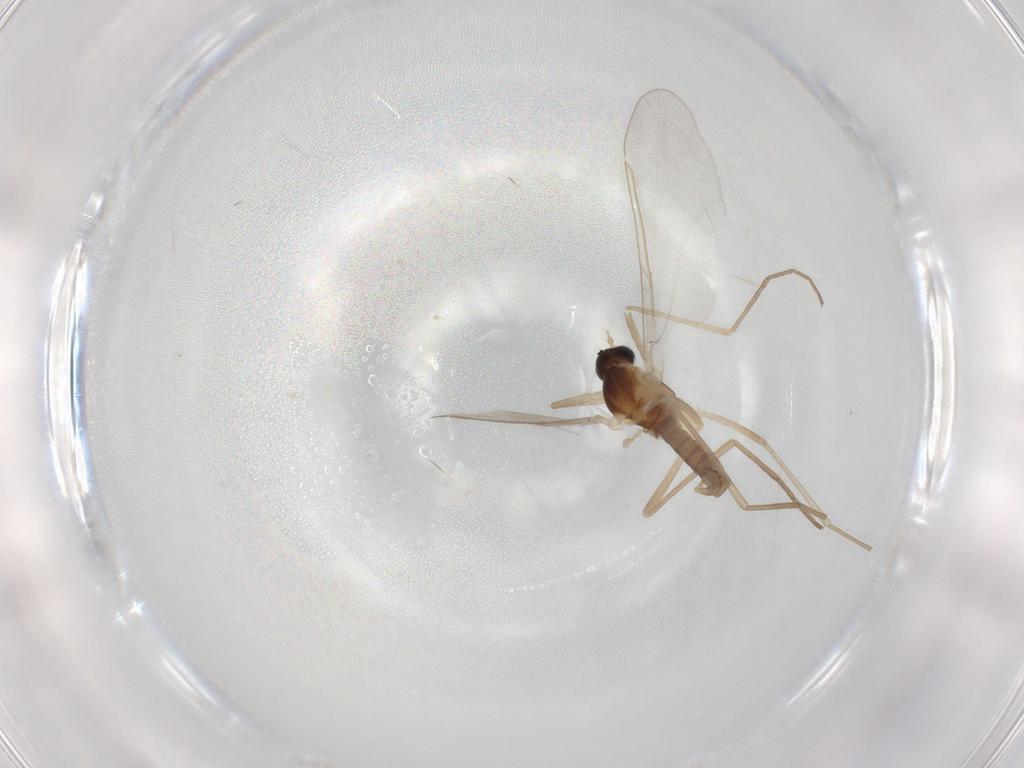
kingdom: Animalia
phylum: Arthropoda
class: Insecta
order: Diptera
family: Cecidomyiidae
